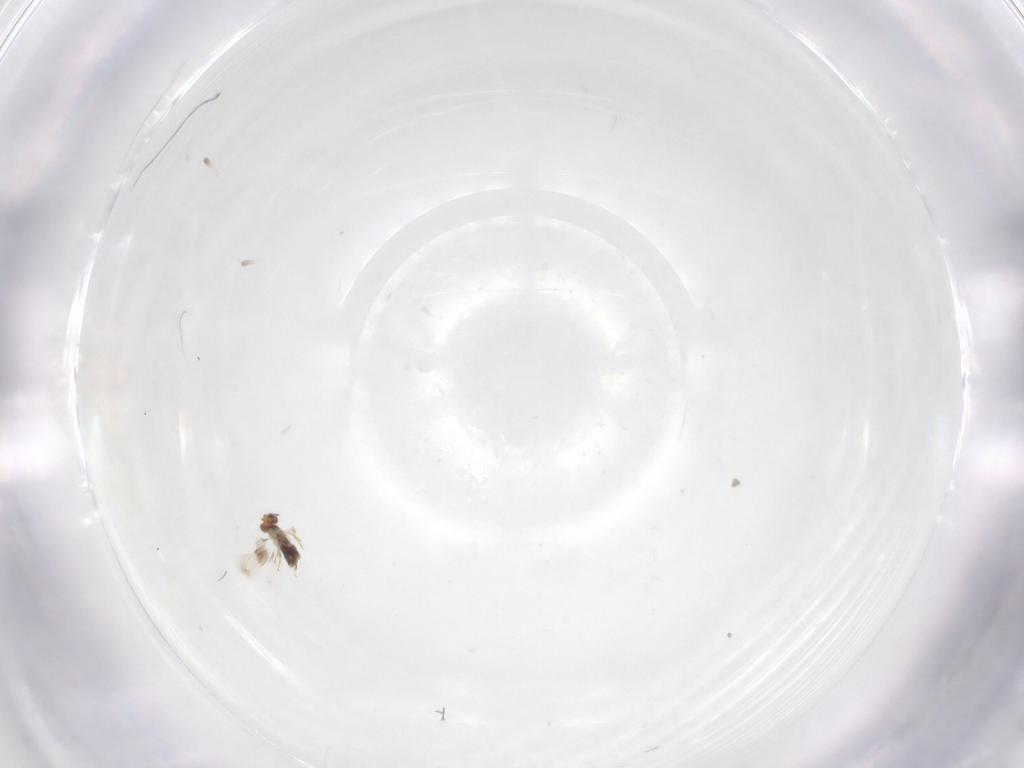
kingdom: Animalia
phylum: Arthropoda
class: Insecta
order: Hymenoptera
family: Aphelinidae
